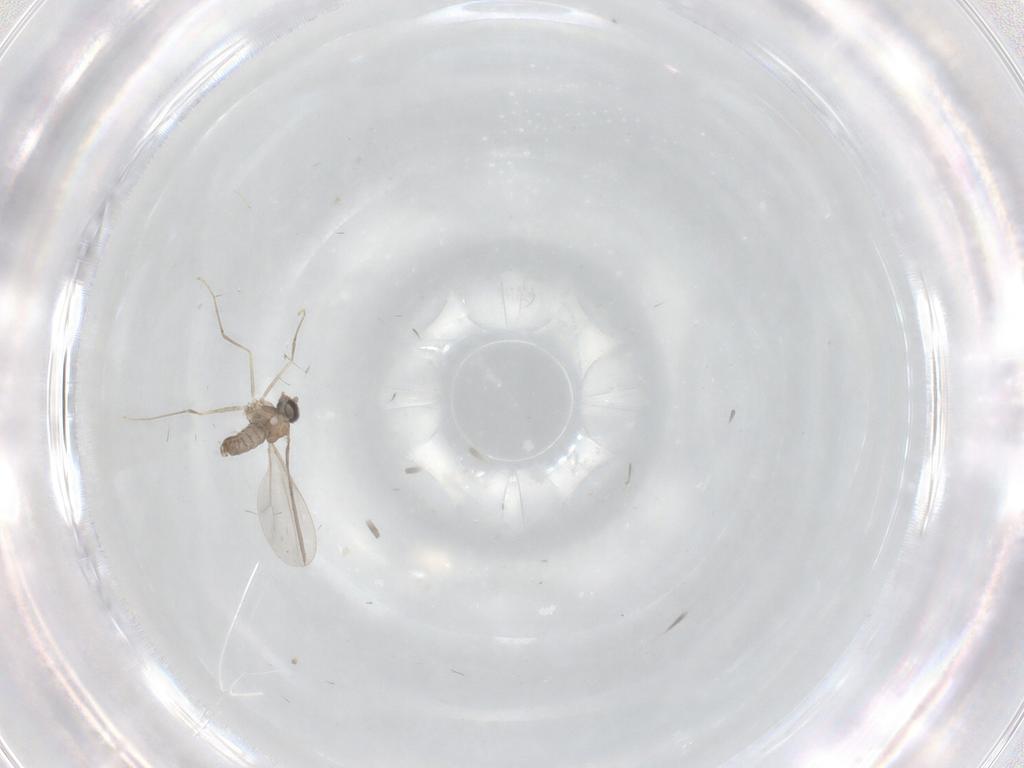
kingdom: Animalia
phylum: Arthropoda
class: Insecta
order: Diptera
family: Cecidomyiidae
